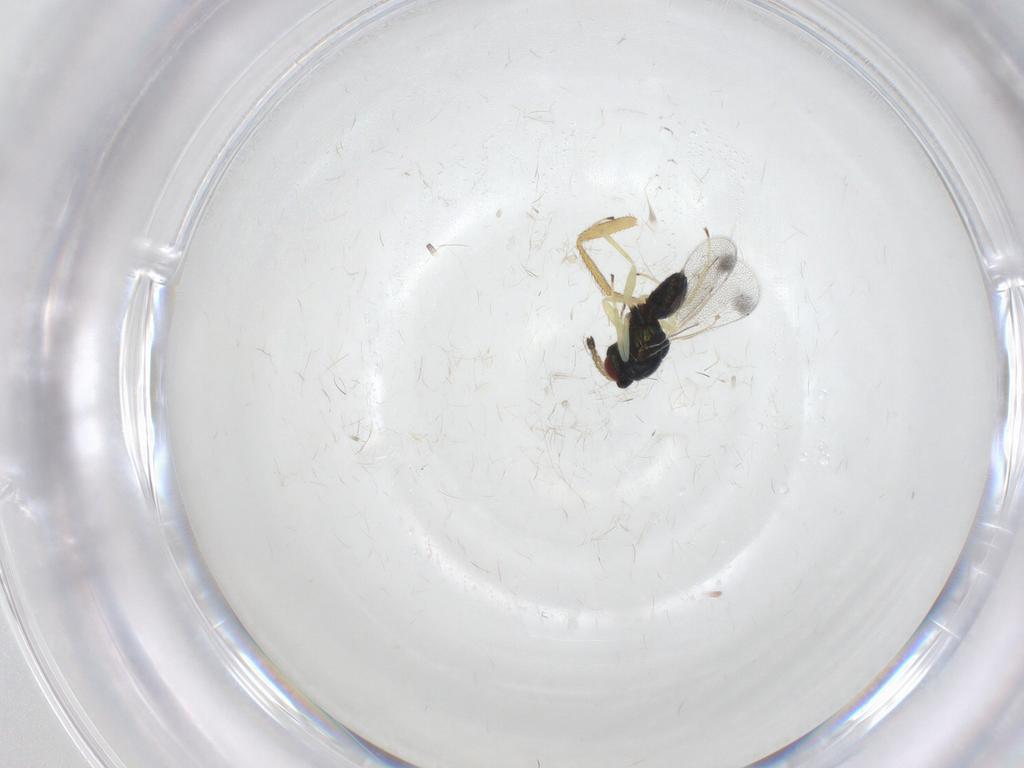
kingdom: Animalia
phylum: Arthropoda
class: Insecta
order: Hymenoptera
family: Eulophidae
